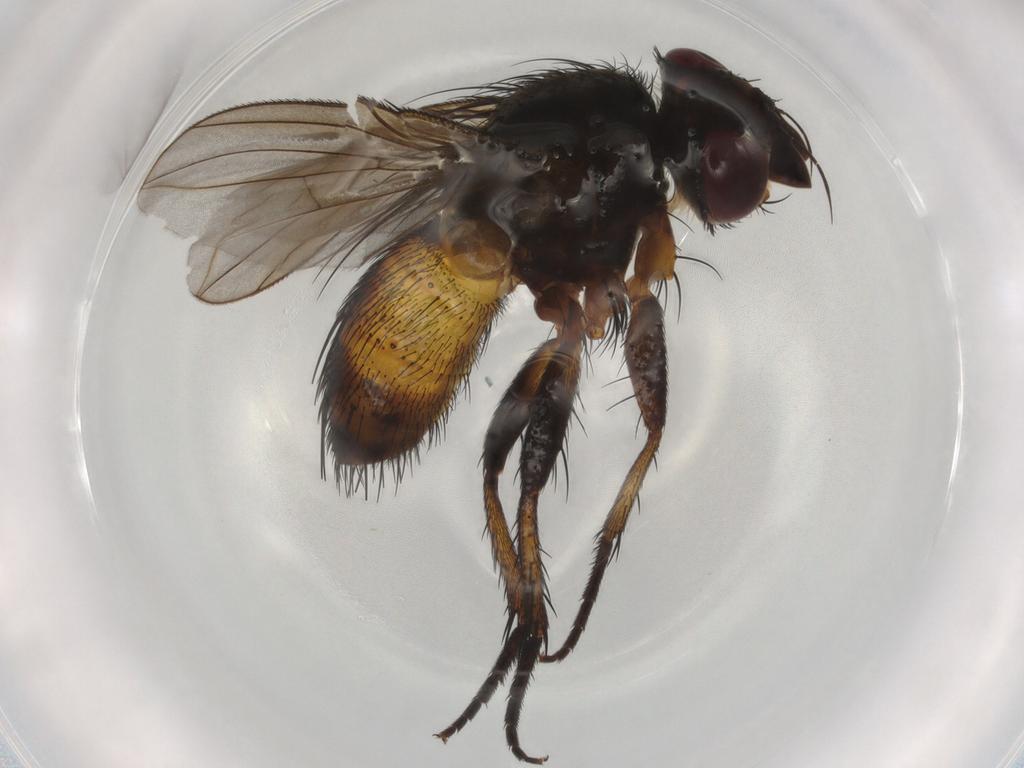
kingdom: Animalia
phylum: Arthropoda
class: Insecta
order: Diptera
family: Tachinidae
